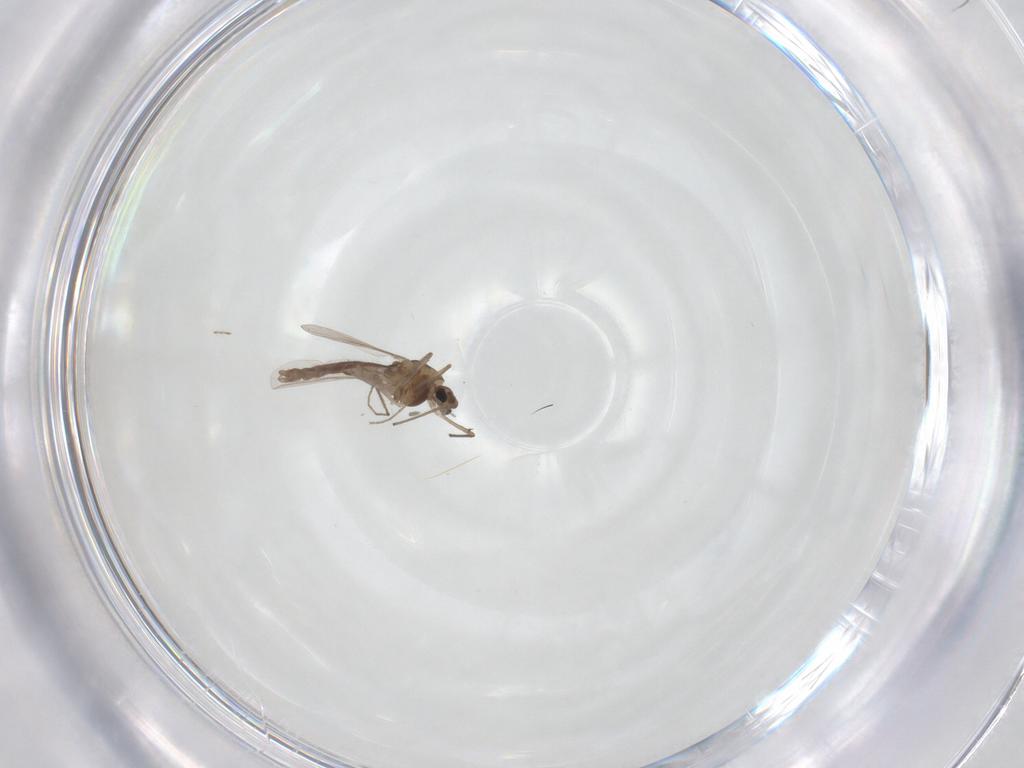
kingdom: Animalia
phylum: Arthropoda
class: Insecta
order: Diptera
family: Chironomidae
